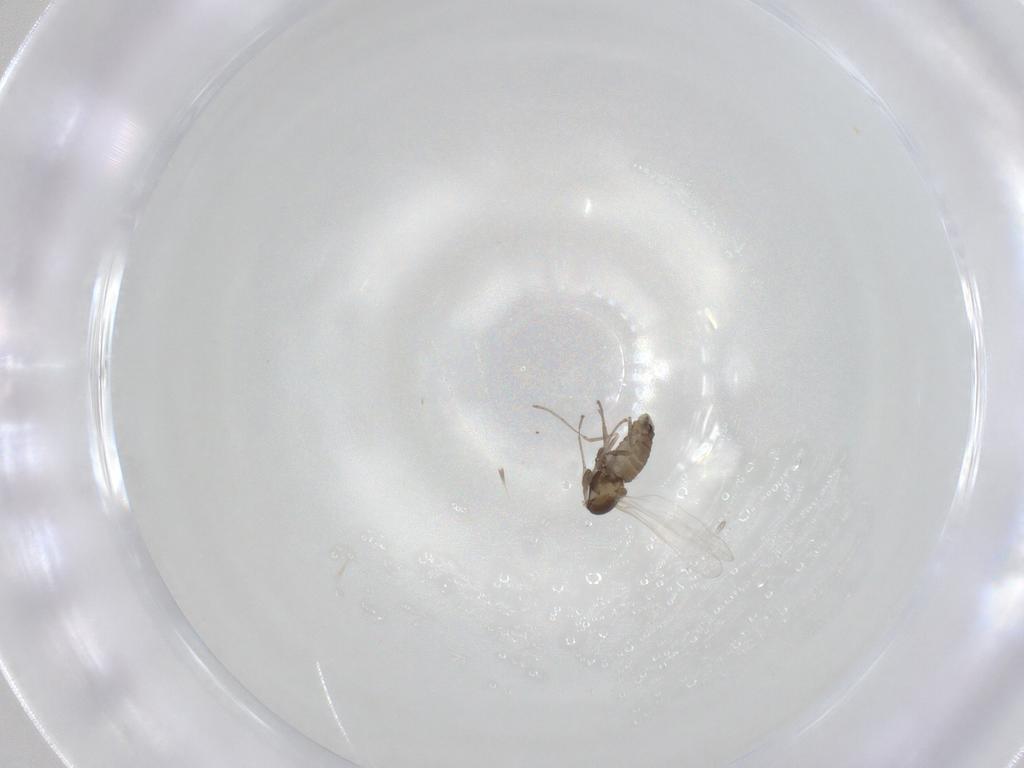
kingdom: Animalia
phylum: Arthropoda
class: Insecta
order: Diptera
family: Cecidomyiidae
